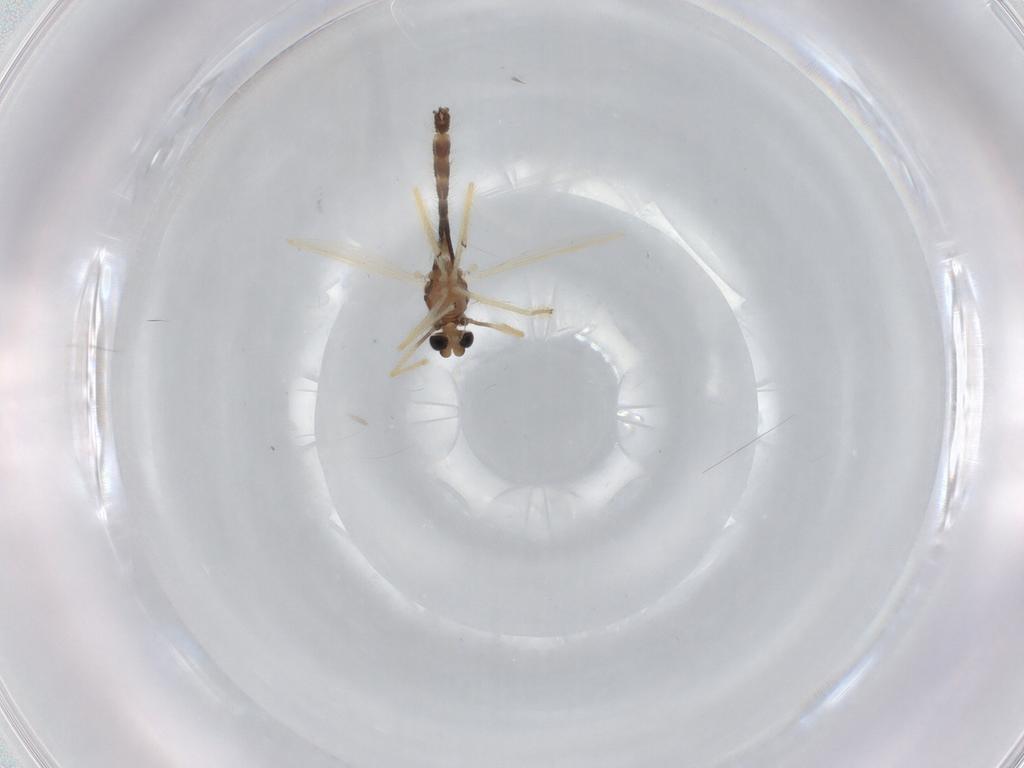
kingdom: Animalia
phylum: Arthropoda
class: Insecta
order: Diptera
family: Chironomidae
